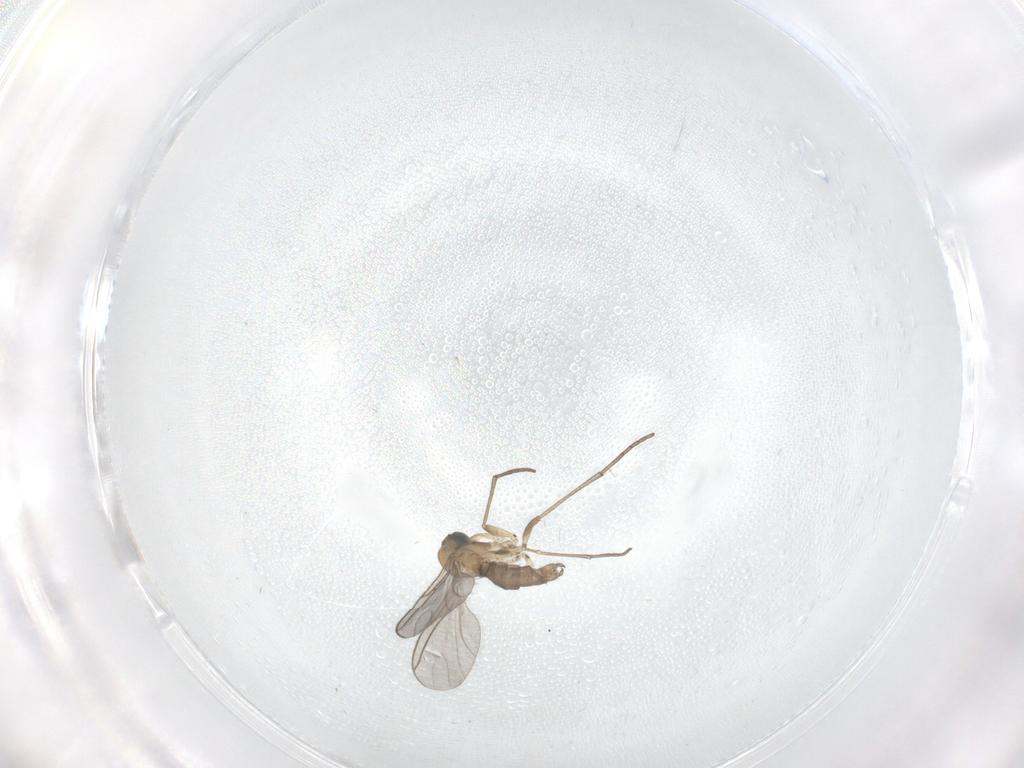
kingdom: Animalia
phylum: Arthropoda
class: Insecta
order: Diptera
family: Sciaridae
